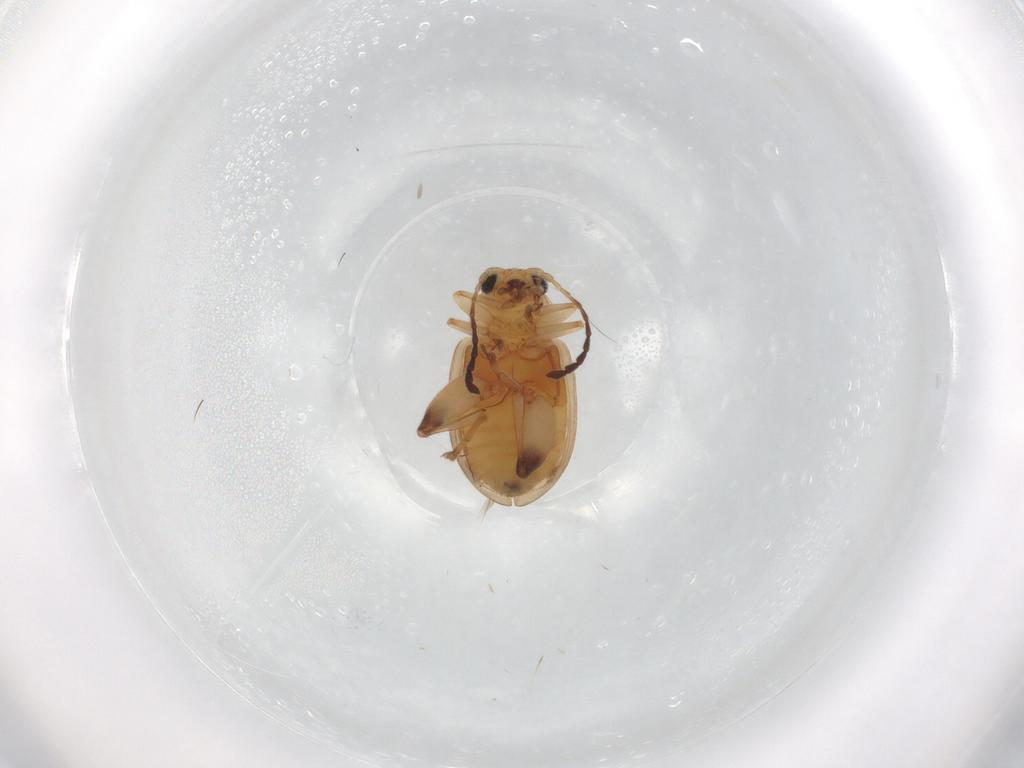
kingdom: Animalia
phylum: Arthropoda
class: Insecta
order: Coleoptera
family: Chrysomelidae
